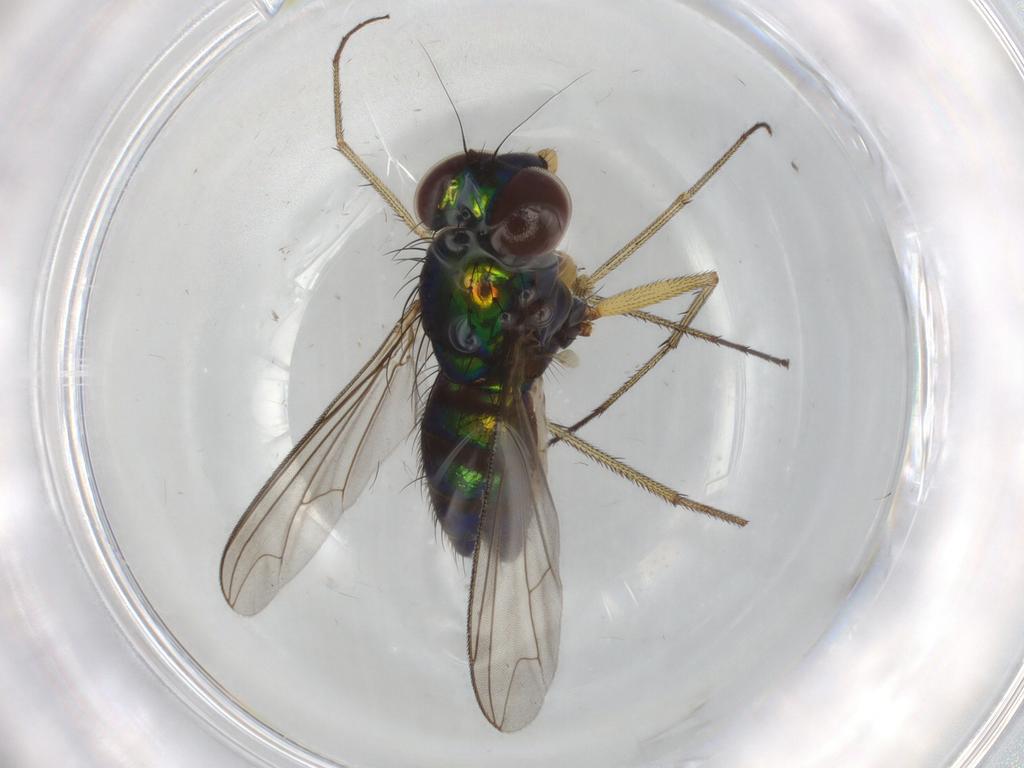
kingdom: Animalia
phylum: Arthropoda
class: Insecta
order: Diptera
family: Dolichopodidae
